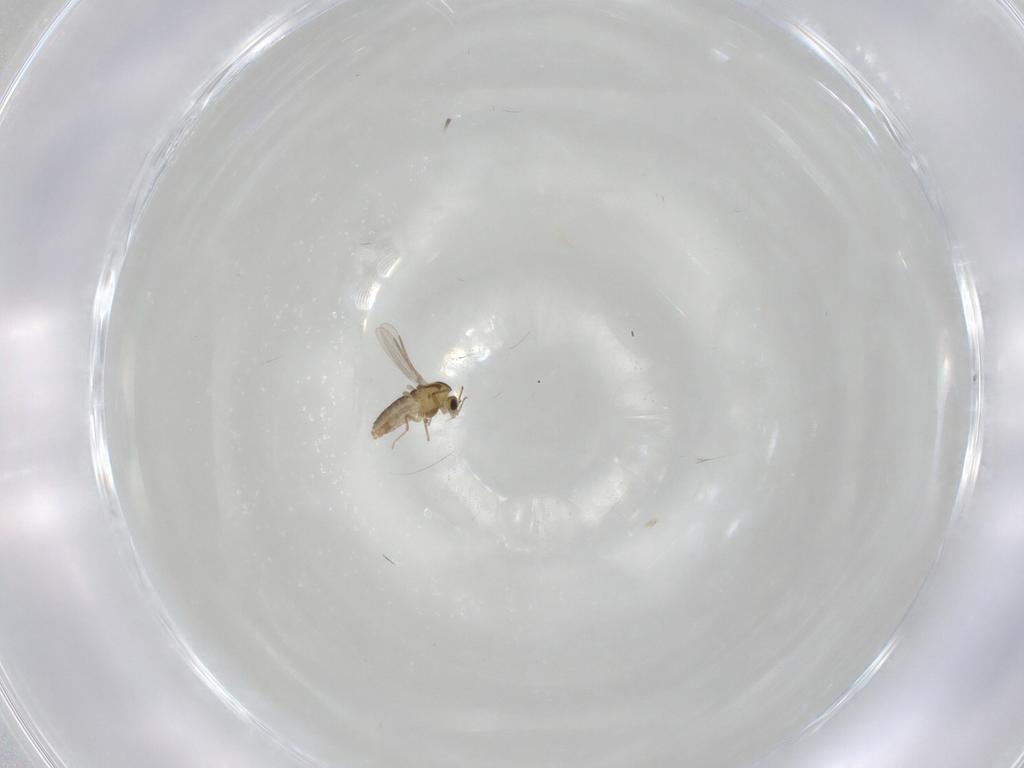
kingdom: Animalia
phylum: Arthropoda
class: Insecta
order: Diptera
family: Chironomidae
